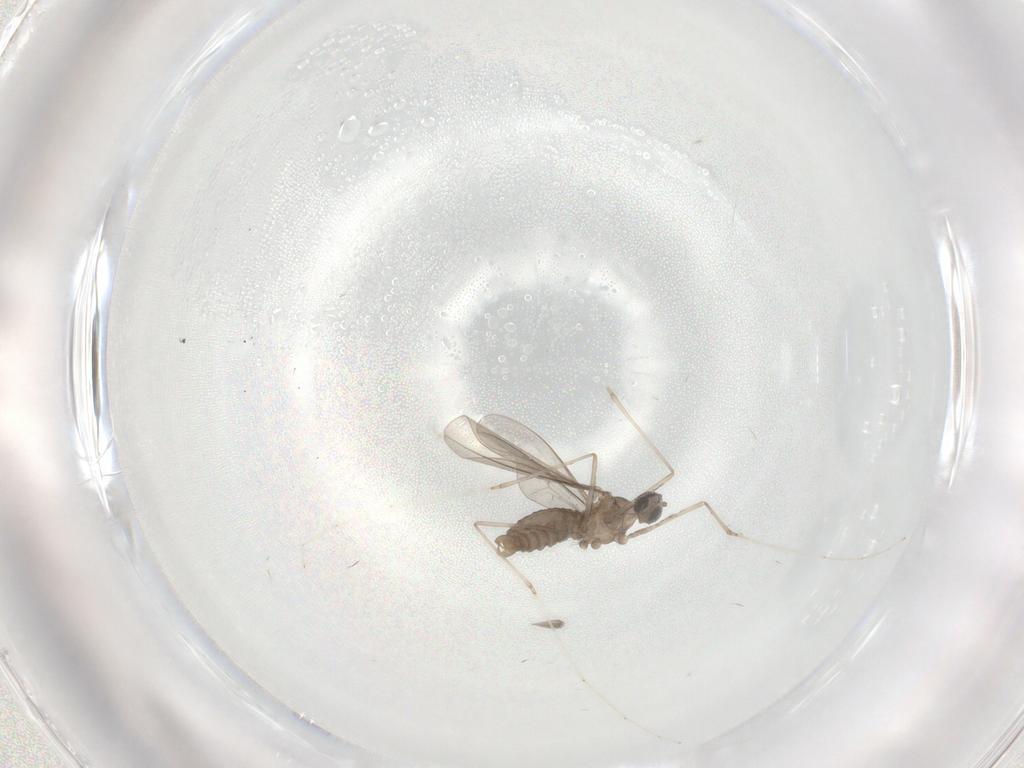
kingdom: Animalia
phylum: Arthropoda
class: Insecta
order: Diptera
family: Cecidomyiidae
